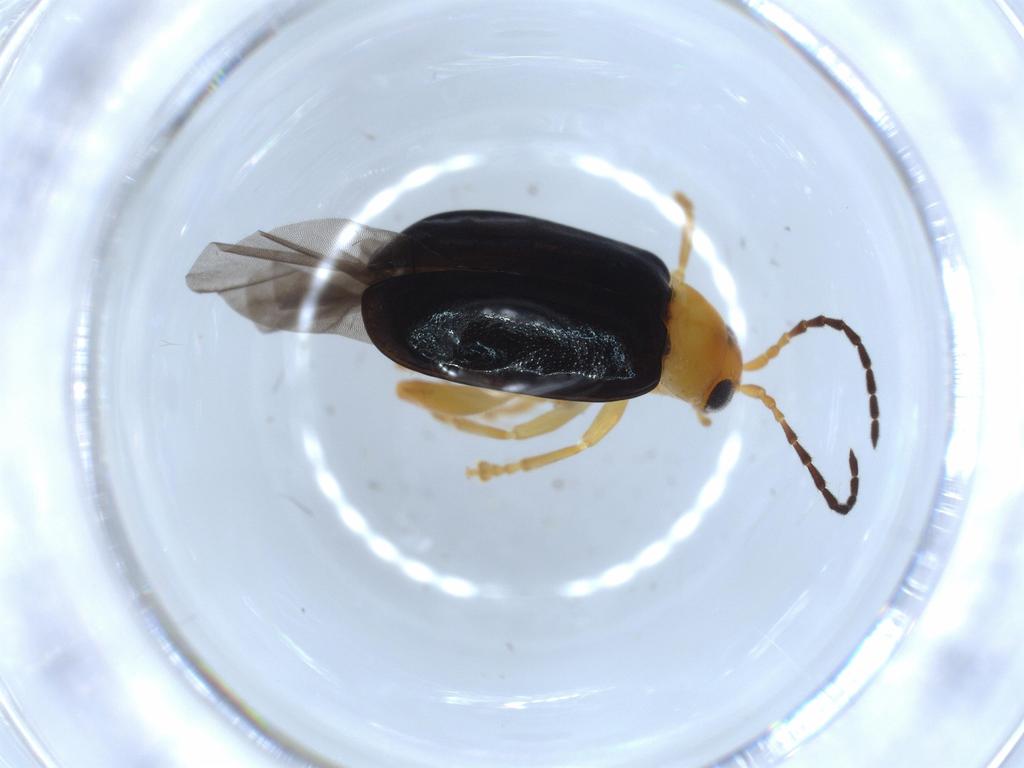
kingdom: Animalia
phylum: Arthropoda
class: Insecta
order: Coleoptera
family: Chrysomelidae
